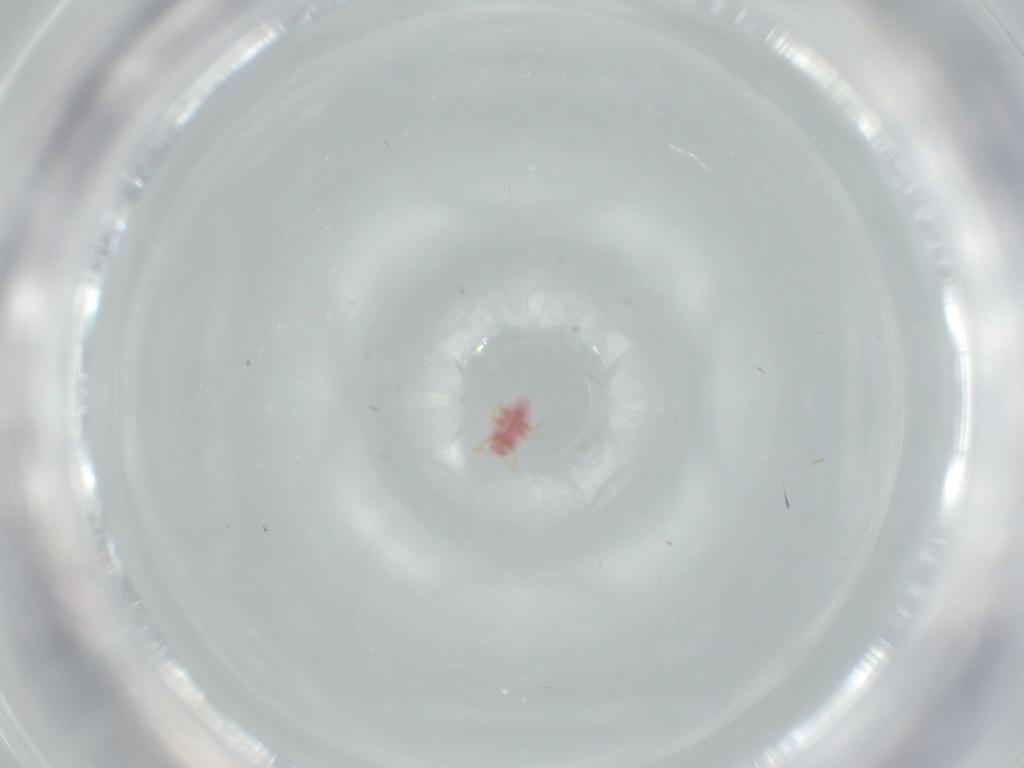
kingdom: Animalia
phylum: Arthropoda
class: Insecta
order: Hemiptera
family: Pseudococcidae
